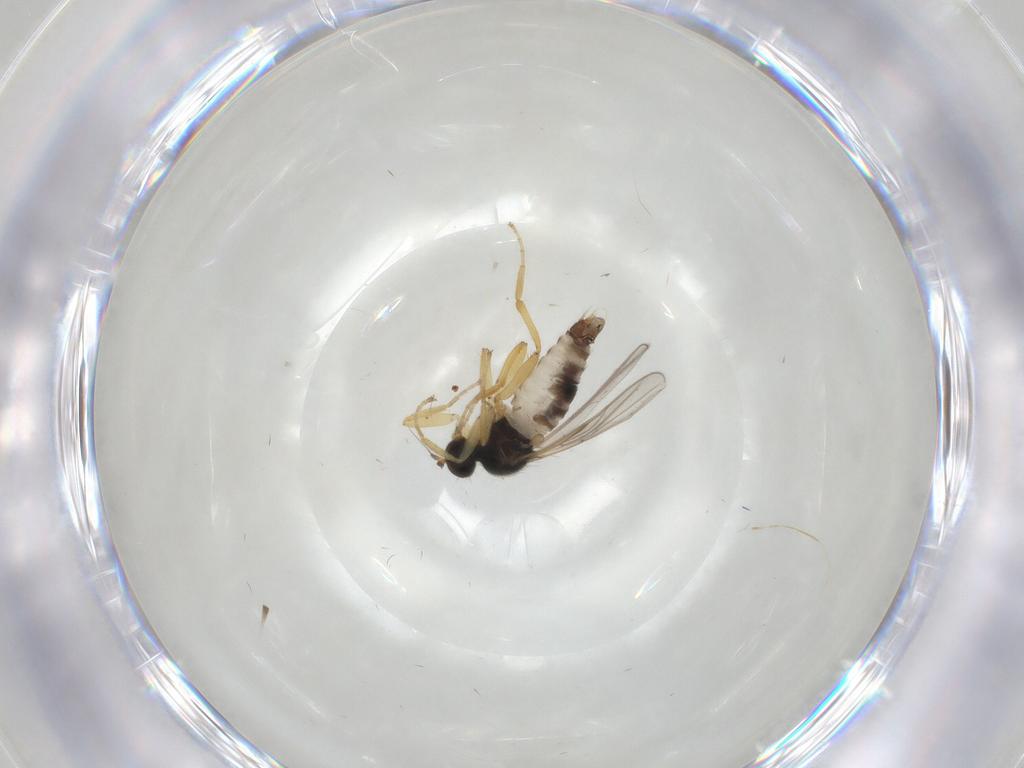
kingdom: Animalia
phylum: Arthropoda
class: Insecta
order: Diptera
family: Hybotidae
